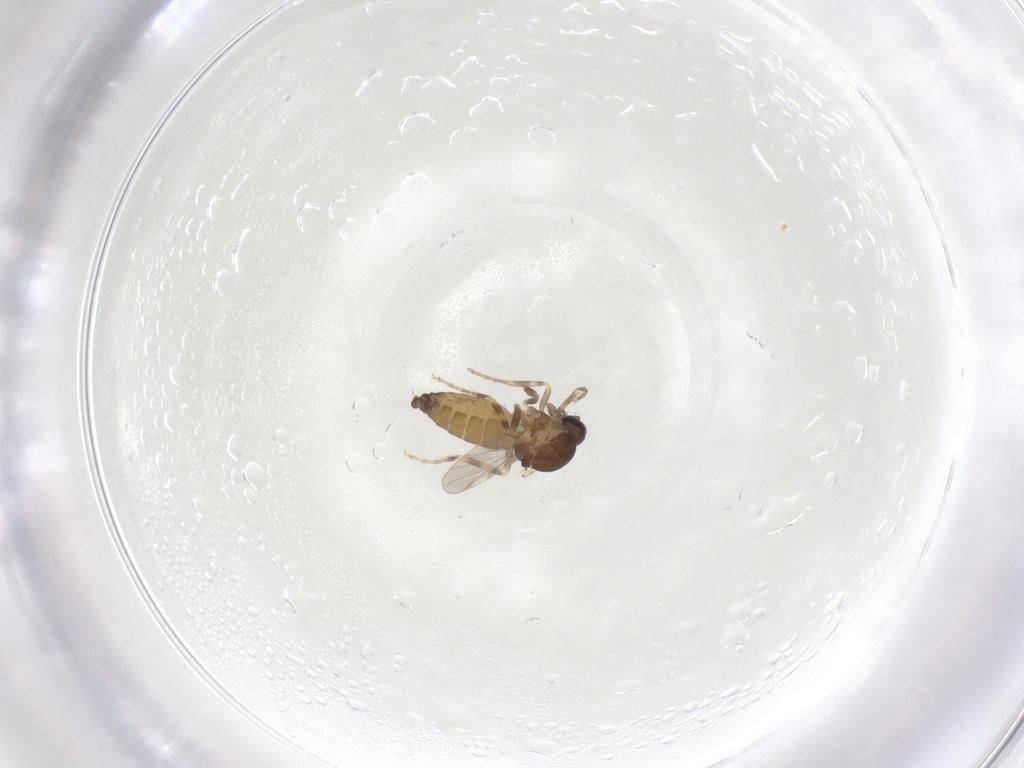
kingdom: Animalia
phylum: Arthropoda
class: Insecta
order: Diptera
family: Ceratopogonidae
